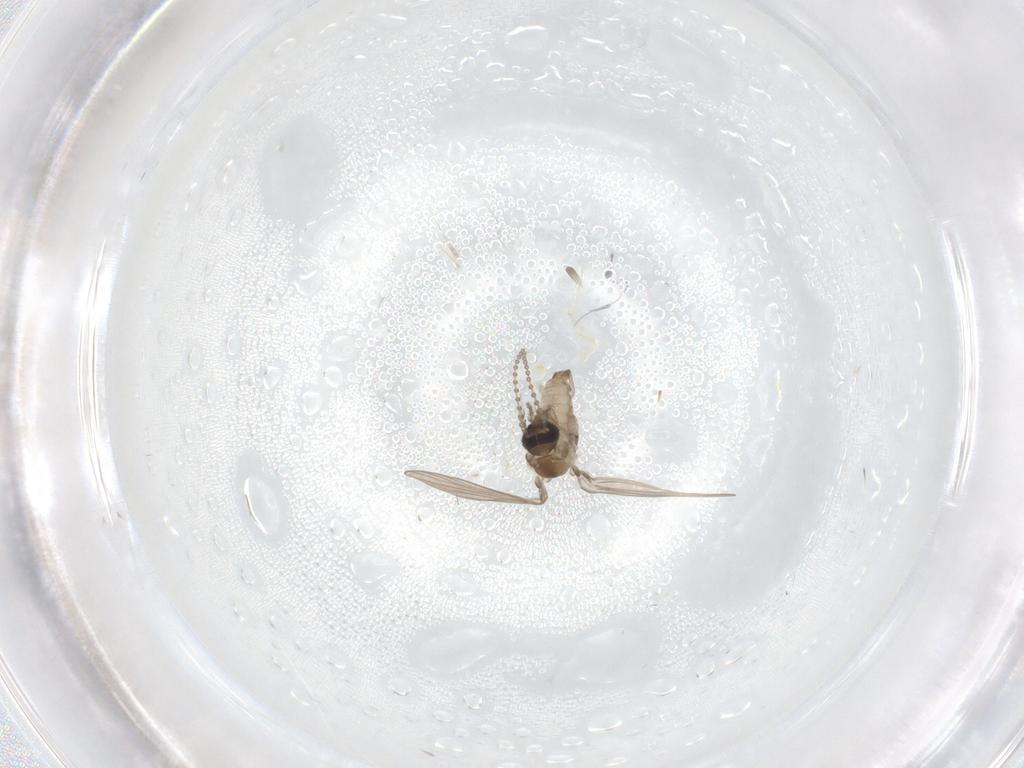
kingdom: Animalia
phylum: Arthropoda
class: Insecta
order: Diptera
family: Psychodidae
